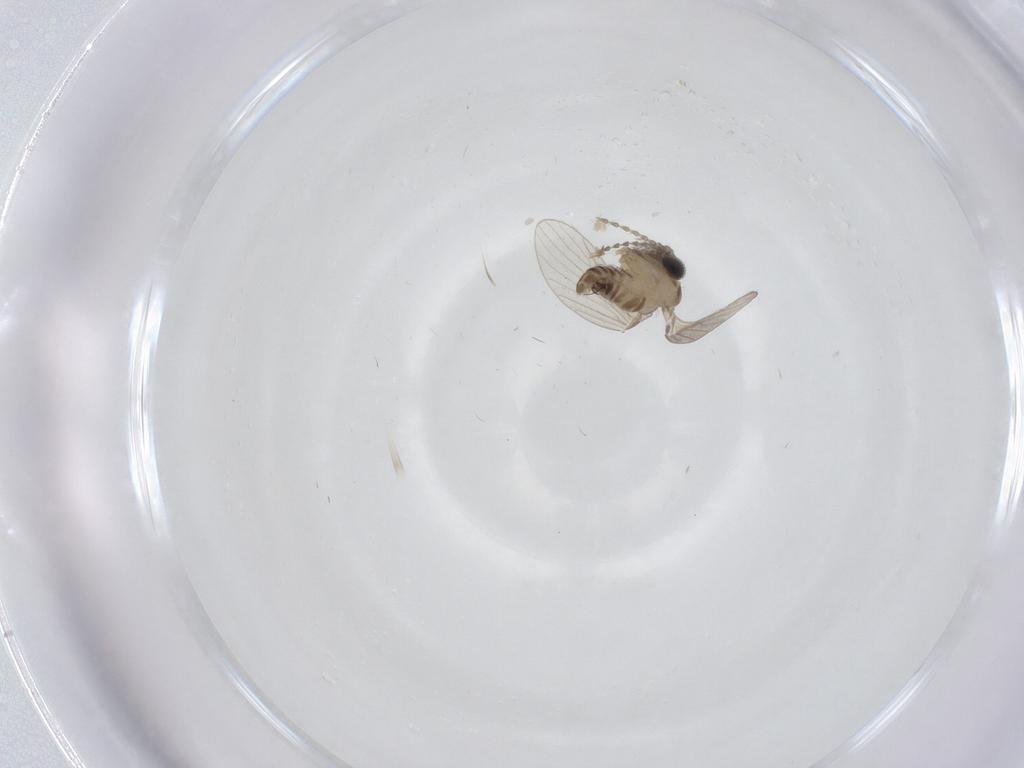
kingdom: Animalia
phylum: Arthropoda
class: Insecta
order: Diptera
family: Psychodidae
